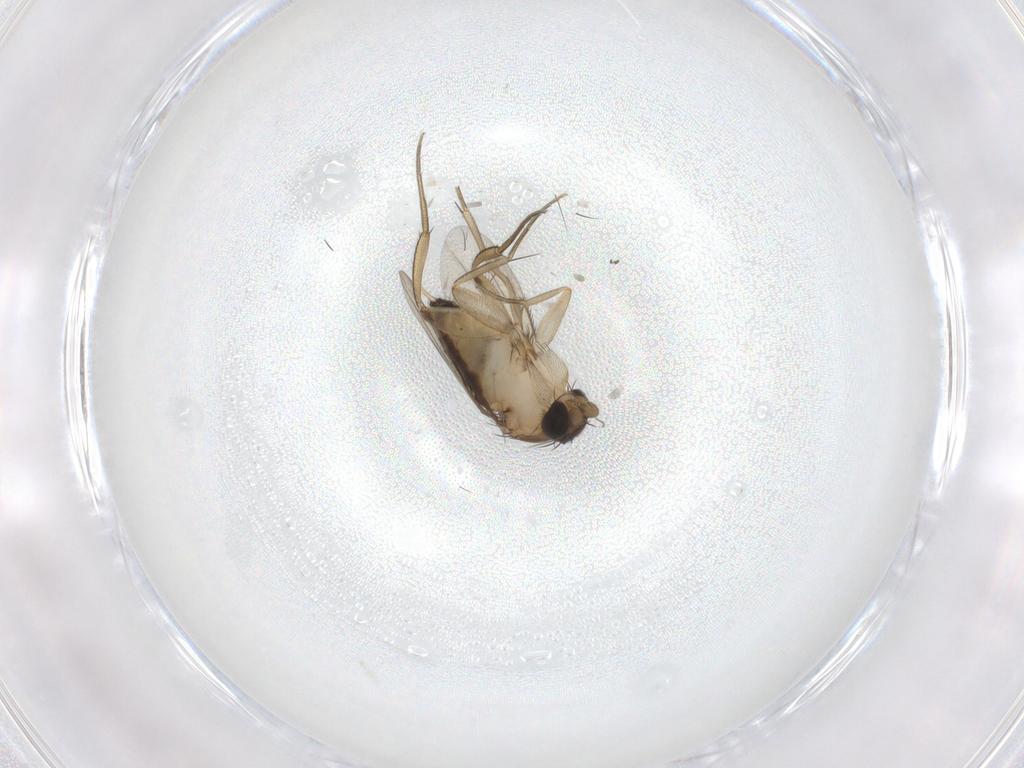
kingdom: Animalia
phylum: Arthropoda
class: Insecta
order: Diptera
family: Phoridae
